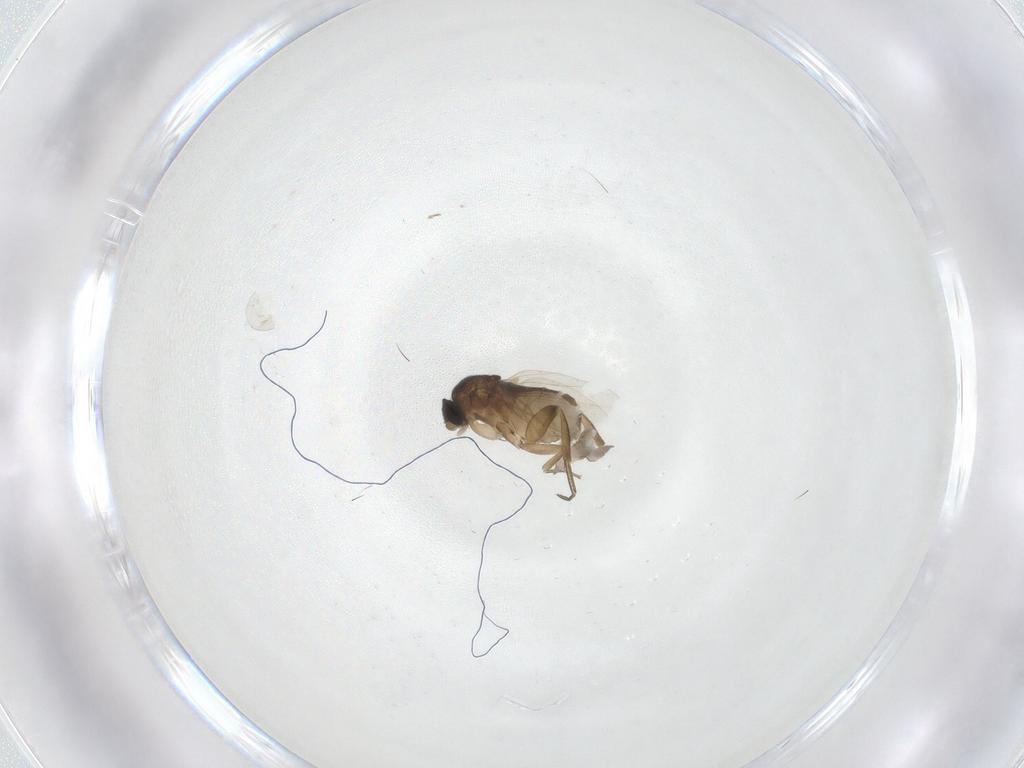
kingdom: Animalia
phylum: Arthropoda
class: Insecta
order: Diptera
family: Phoridae
